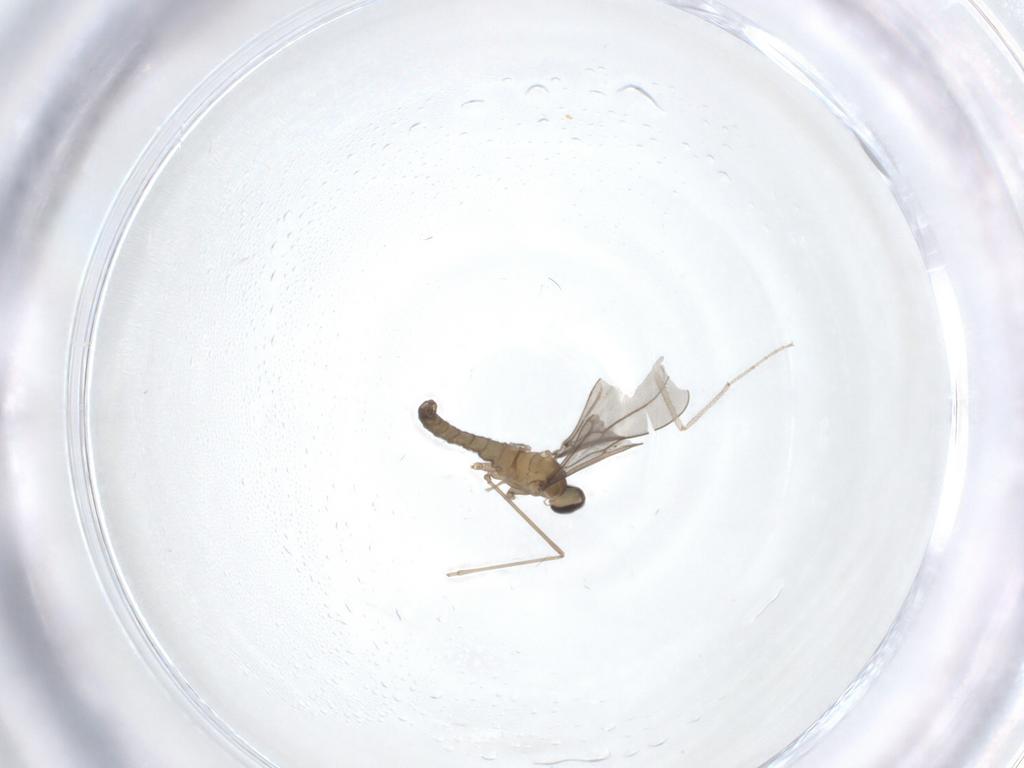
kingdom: Animalia
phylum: Arthropoda
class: Insecta
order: Diptera
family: Cecidomyiidae
